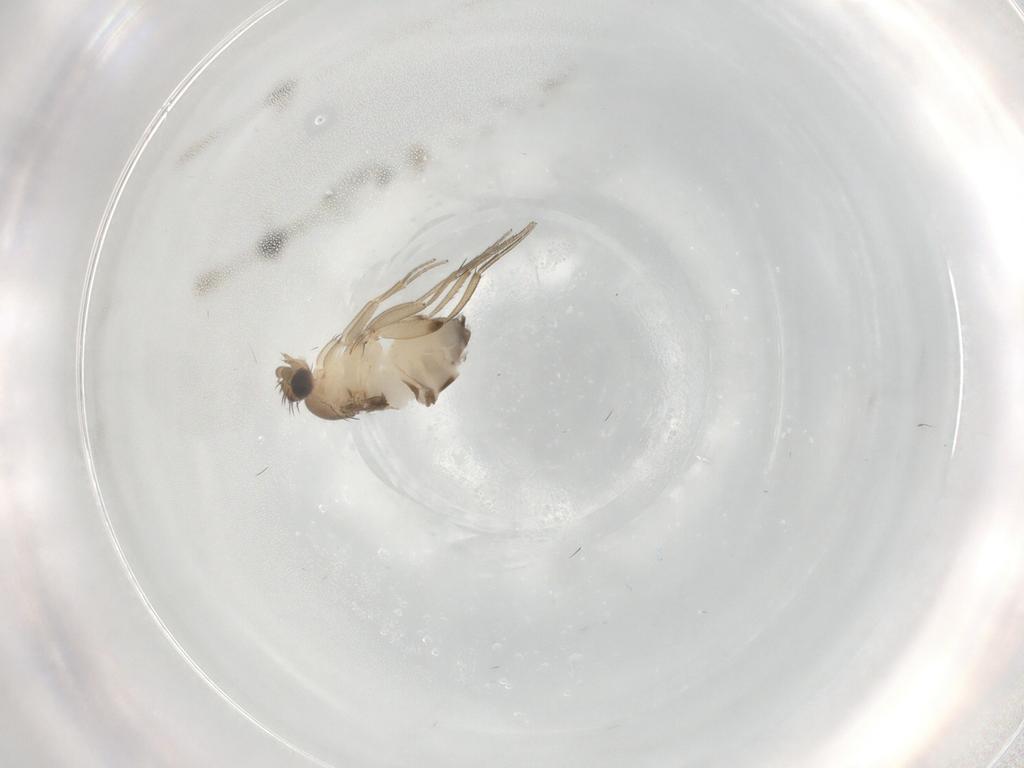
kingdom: Animalia
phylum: Arthropoda
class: Insecta
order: Diptera
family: Phoridae
